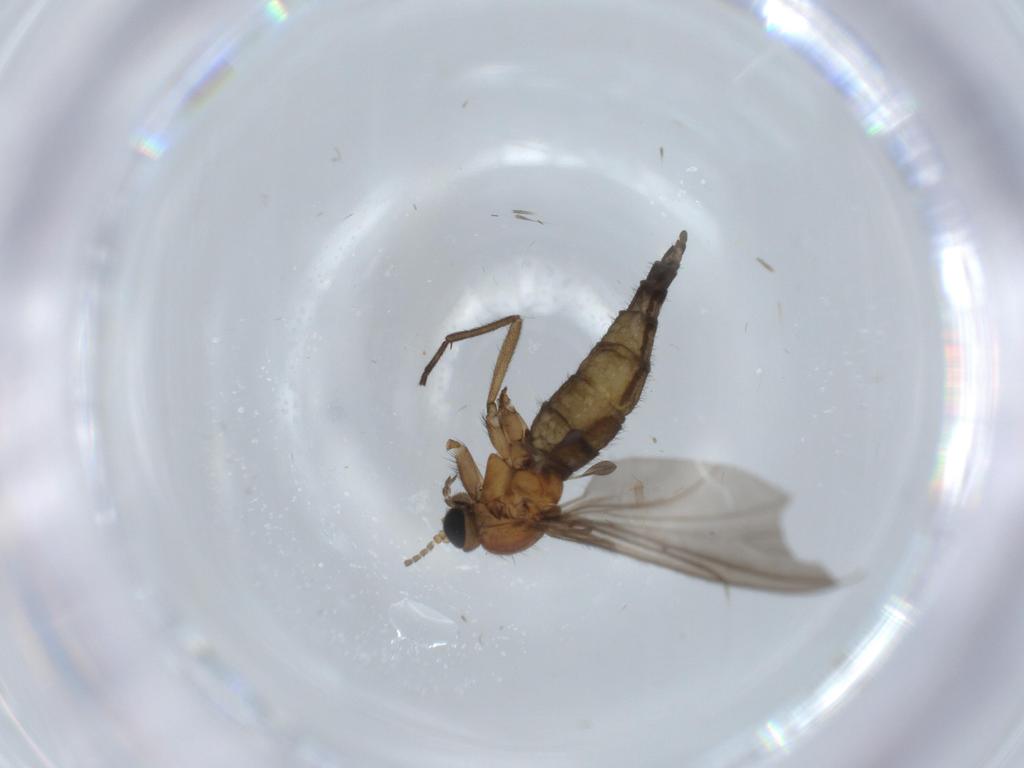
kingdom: Animalia
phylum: Arthropoda
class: Insecta
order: Diptera
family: Sciaridae
